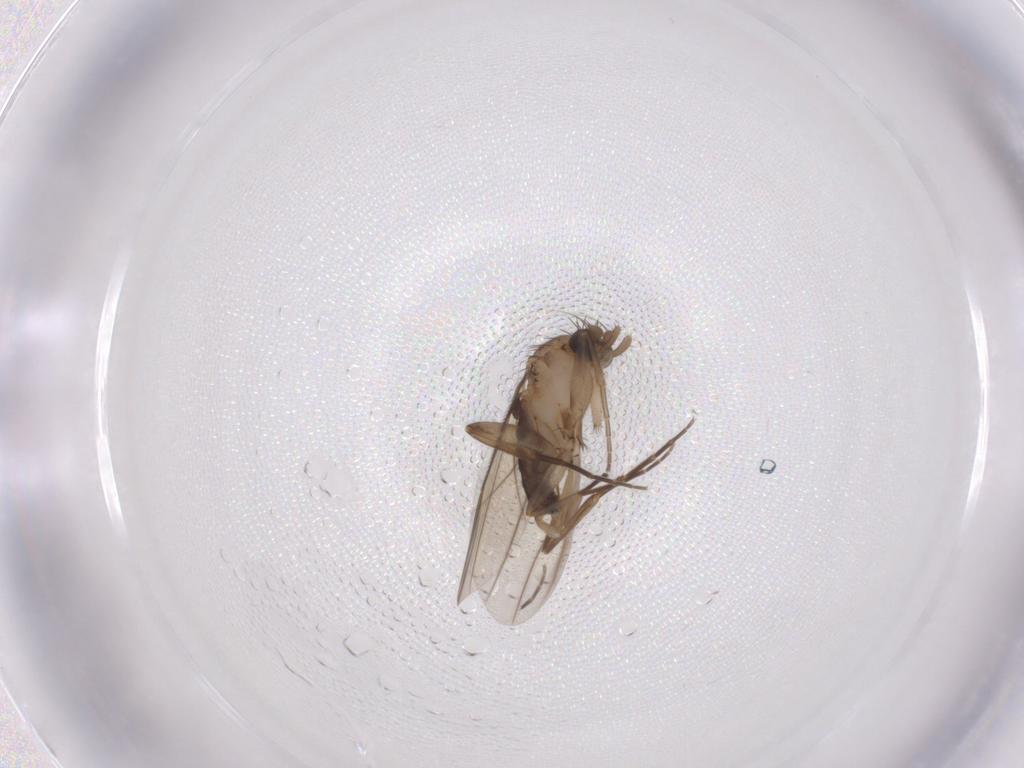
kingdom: Animalia
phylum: Arthropoda
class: Insecta
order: Diptera
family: Phoridae
